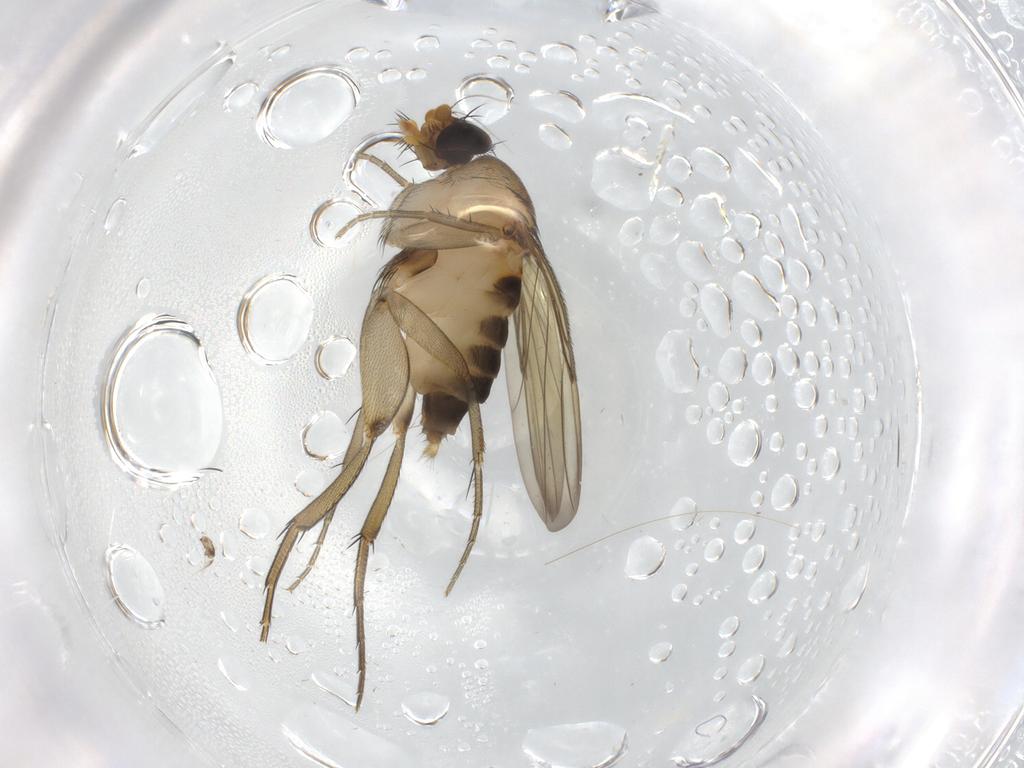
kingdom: Animalia
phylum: Arthropoda
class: Insecta
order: Diptera
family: Sciaridae
